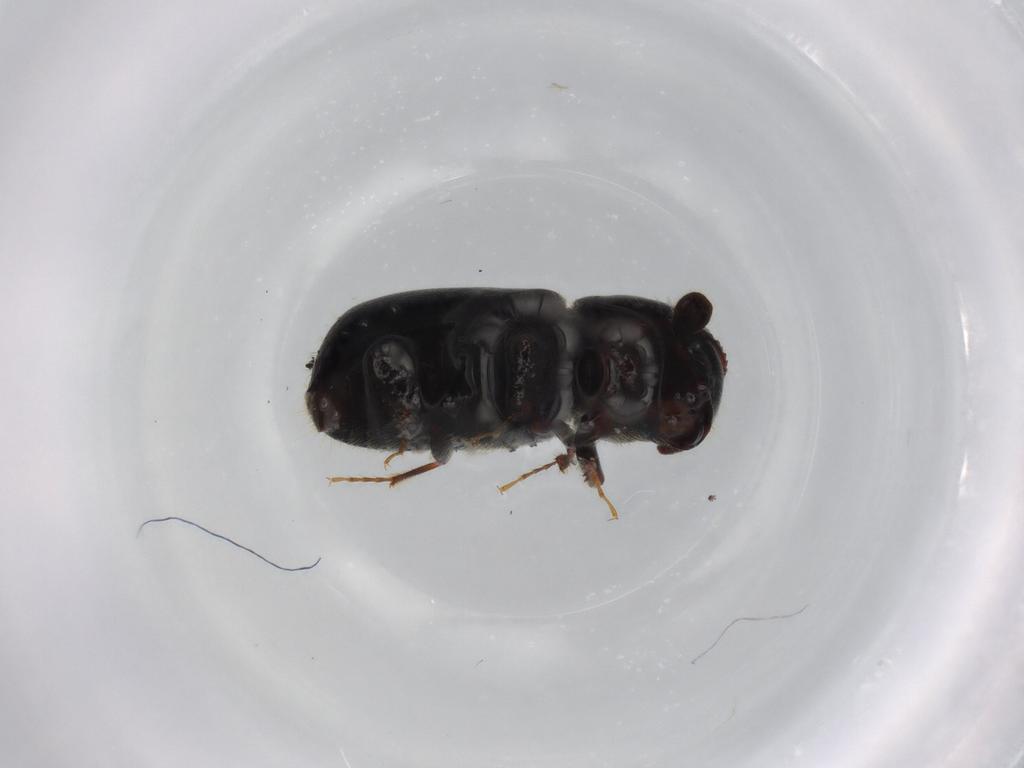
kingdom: Animalia
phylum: Arthropoda
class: Insecta
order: Coleoptera
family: Curculionidae
